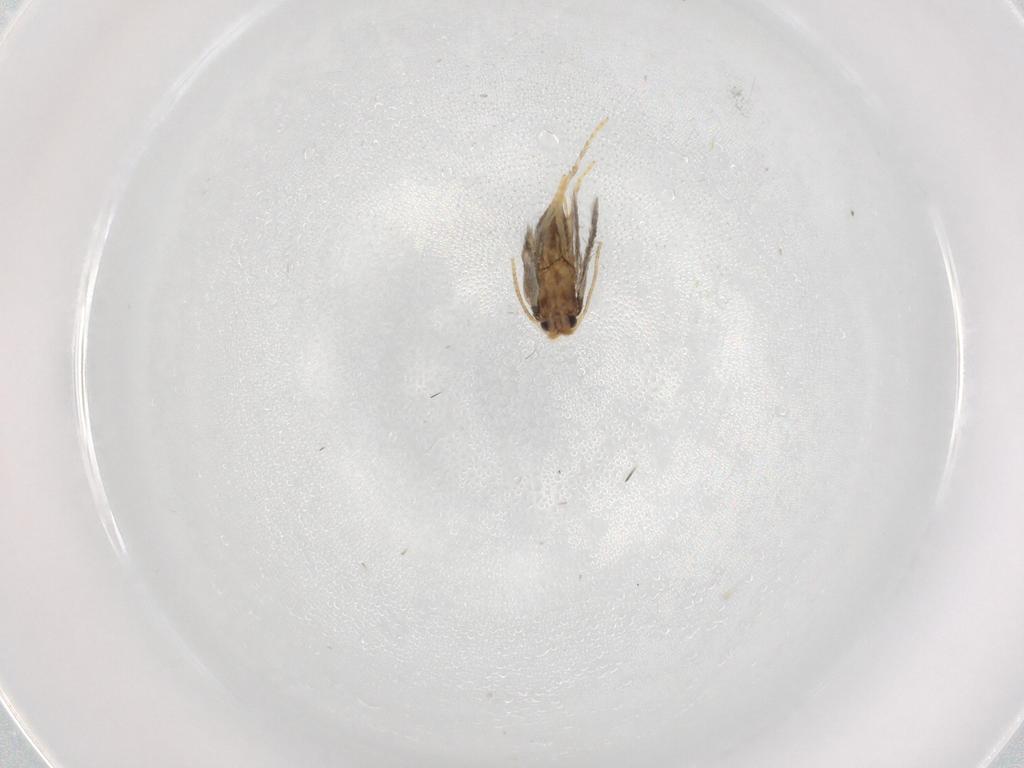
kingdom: Animalia
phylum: Arthropoda
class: Insecta
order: Lepidoptera
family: Copromorphidae
